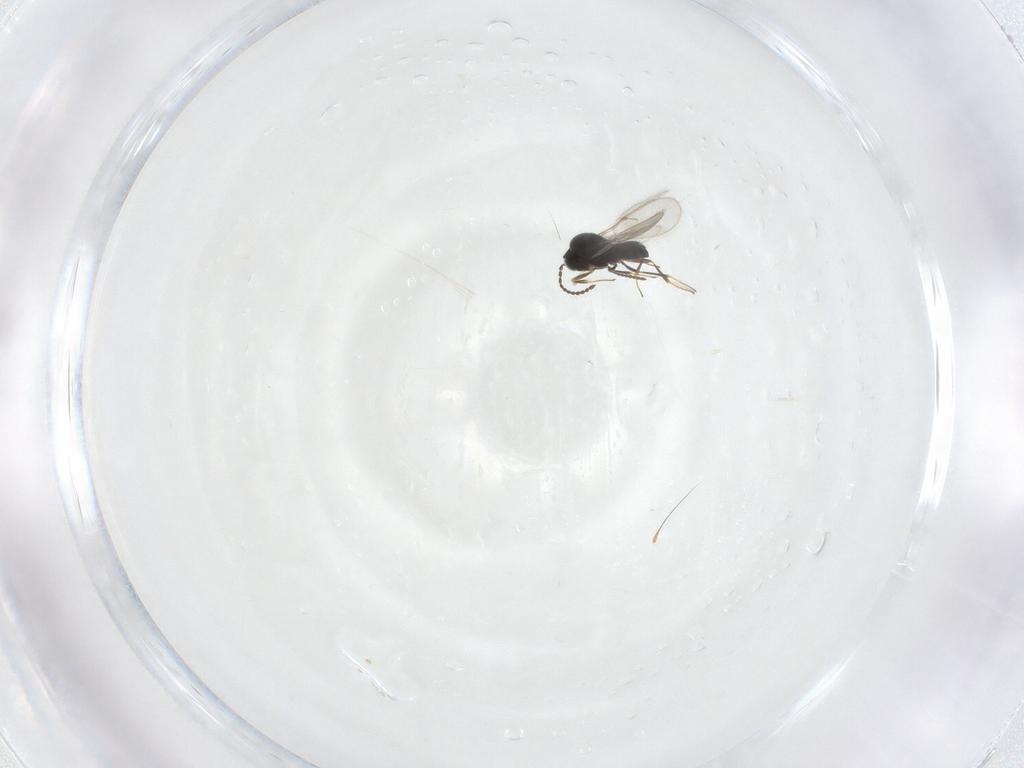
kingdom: Animalia
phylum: Arthropoda
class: Insecta
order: Hymenoptera
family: Scelionidae
